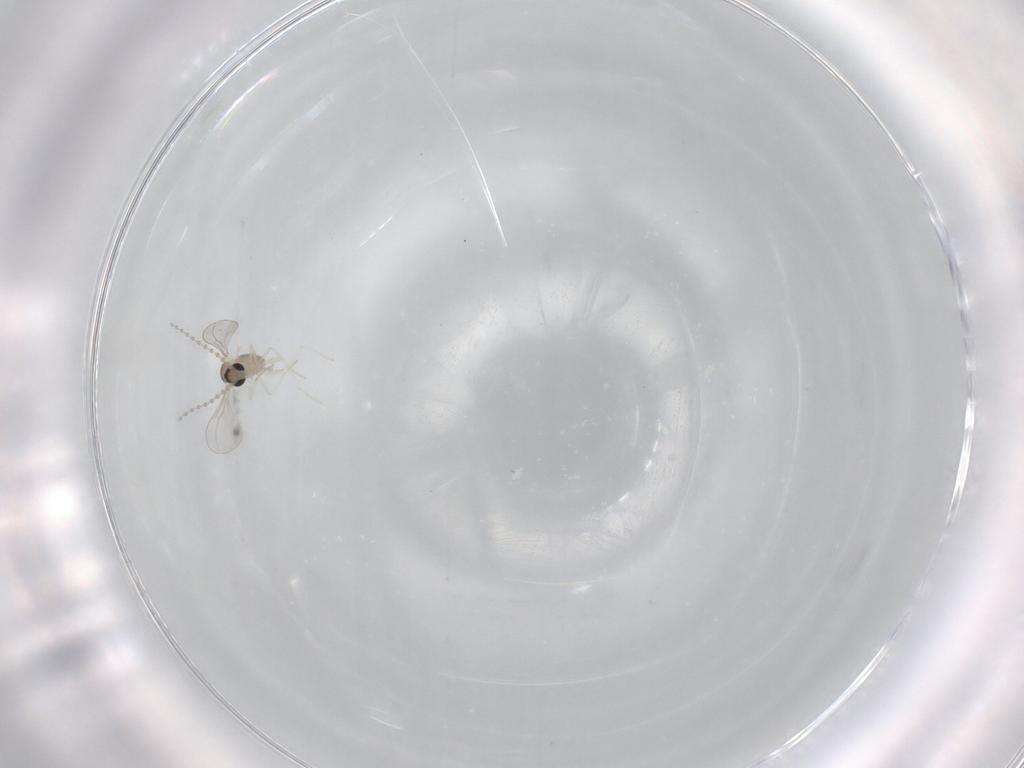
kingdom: Animalia
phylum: Arthropoda
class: Insecta
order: Diptera
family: Cecidomyiidae
